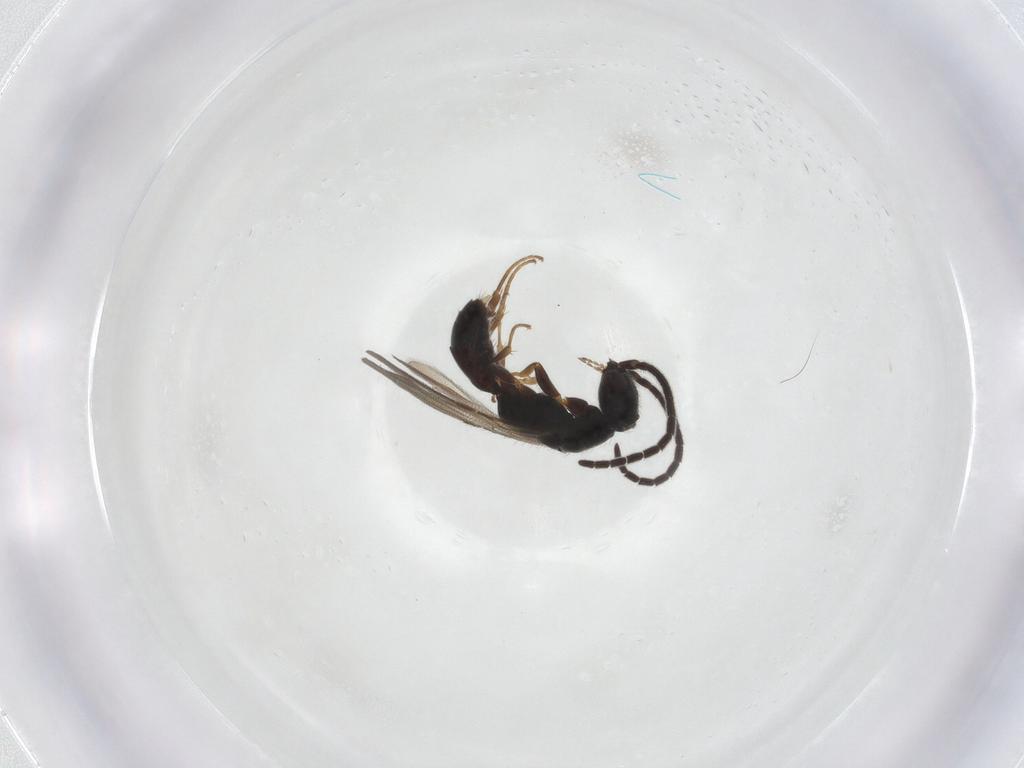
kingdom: Animalia
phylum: Arthropoda
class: Insecta
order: Hymenoptera
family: Bethylidae
